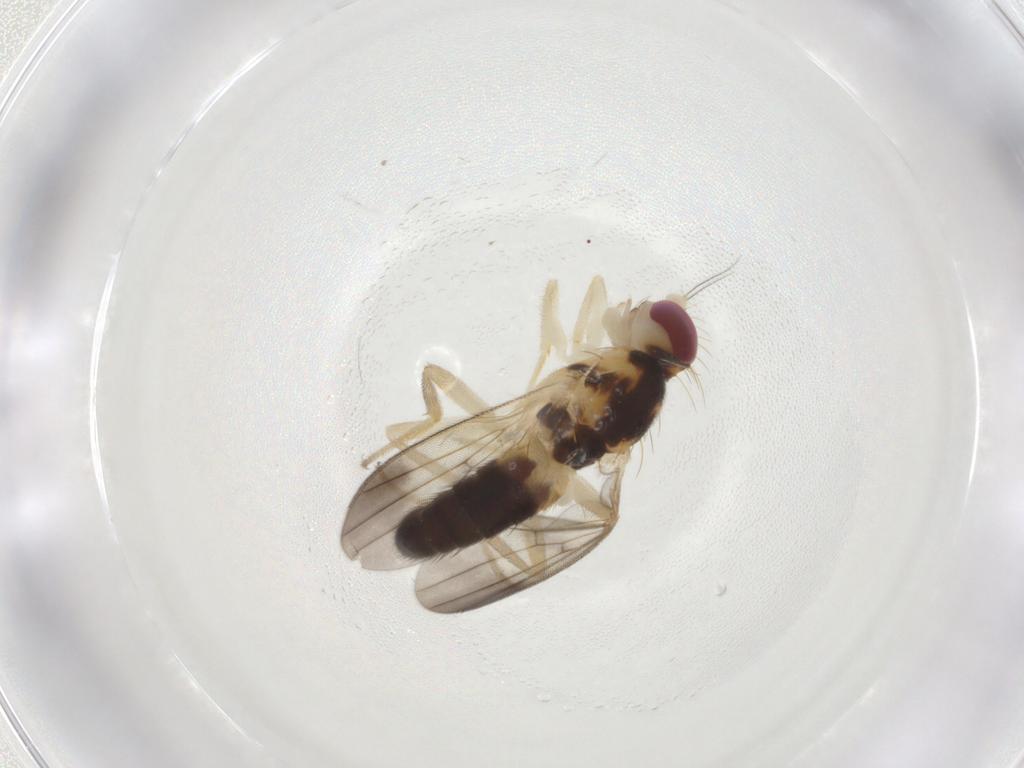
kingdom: Animalia
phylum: Arthropoda
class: Insecta
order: Diptera
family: Clusiidae
